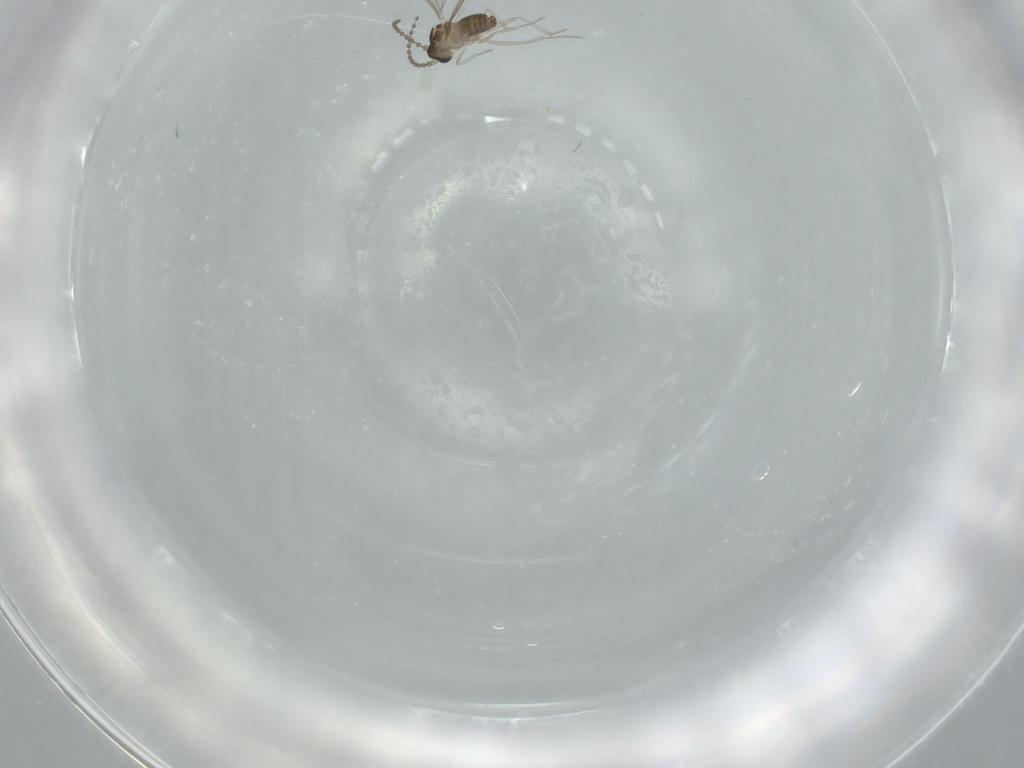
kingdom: Animalia
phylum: Arthropoda
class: Insecta
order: Diptera
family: Cecidomyiidae
